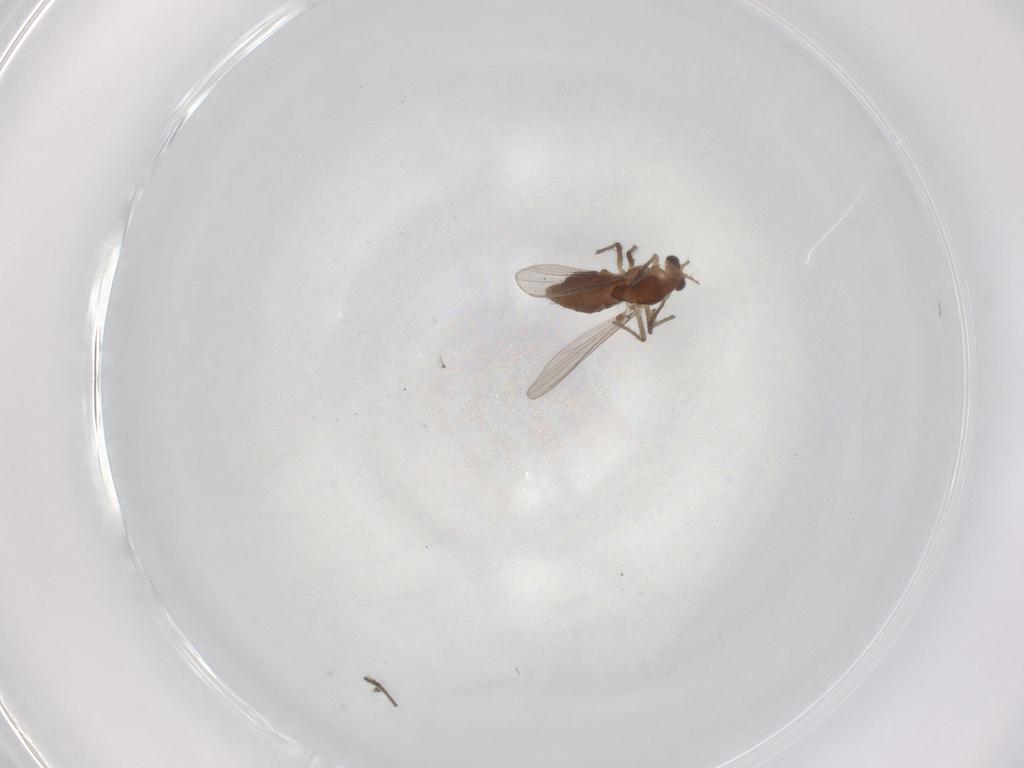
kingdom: Animalia
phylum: Arthropoda
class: Insecta
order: Diptera
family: Chironomidae
